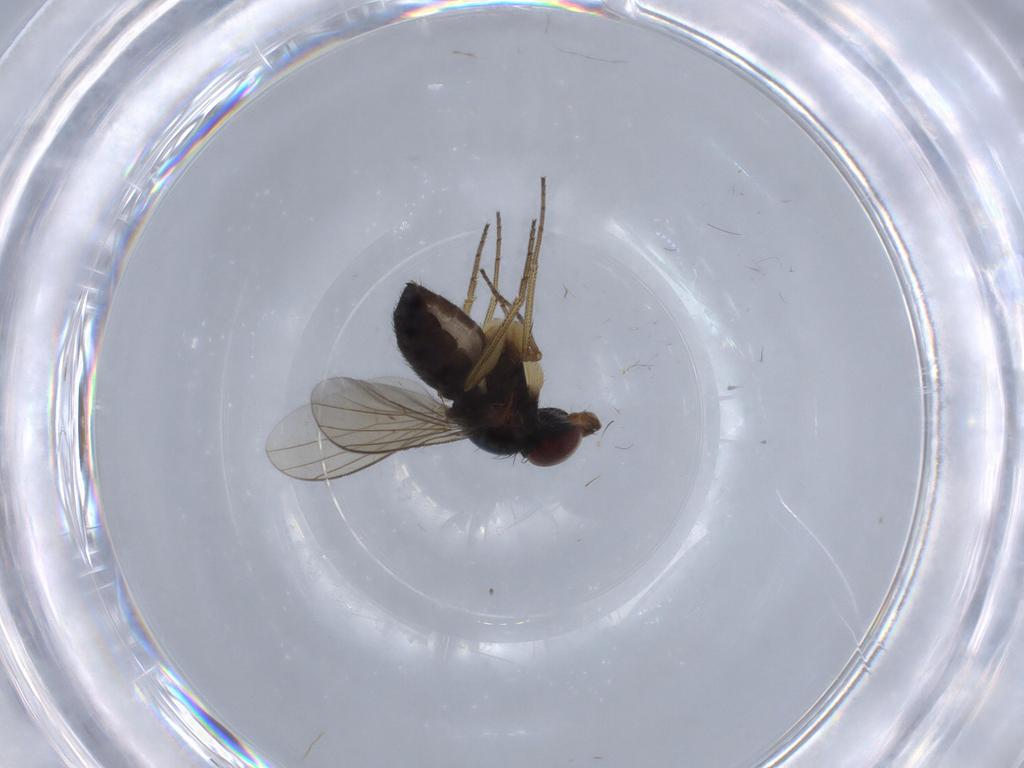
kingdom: Animalia
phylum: Arthropoda
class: Insecta
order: Diptera
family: Dolichopodidae
